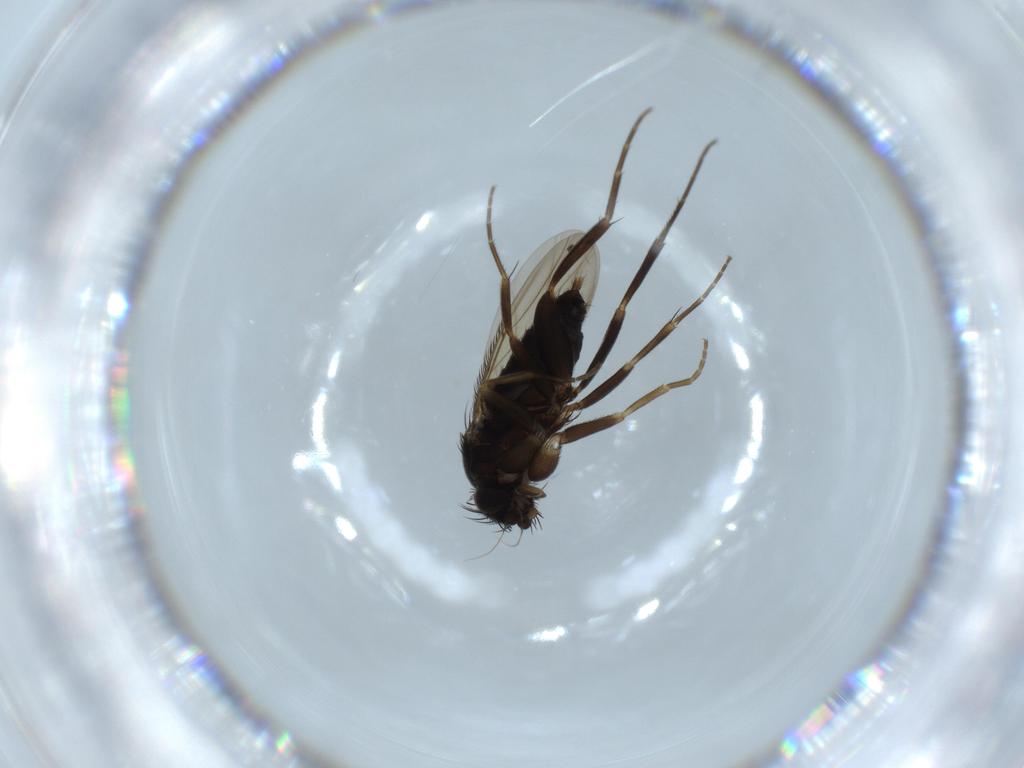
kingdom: Animalia
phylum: Arthropoda
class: Insecta
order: Diptera
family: Phoridae
